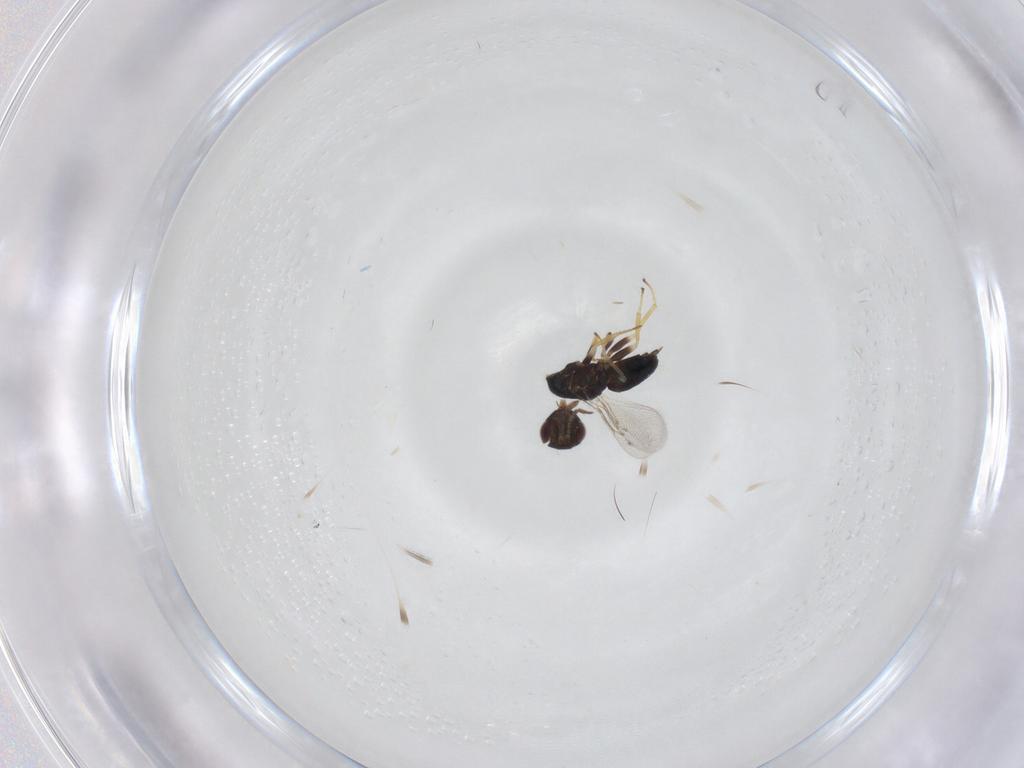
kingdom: Animalia
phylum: Arthropoda
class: Insecta
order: Hymenoptera
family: Eulophidae
